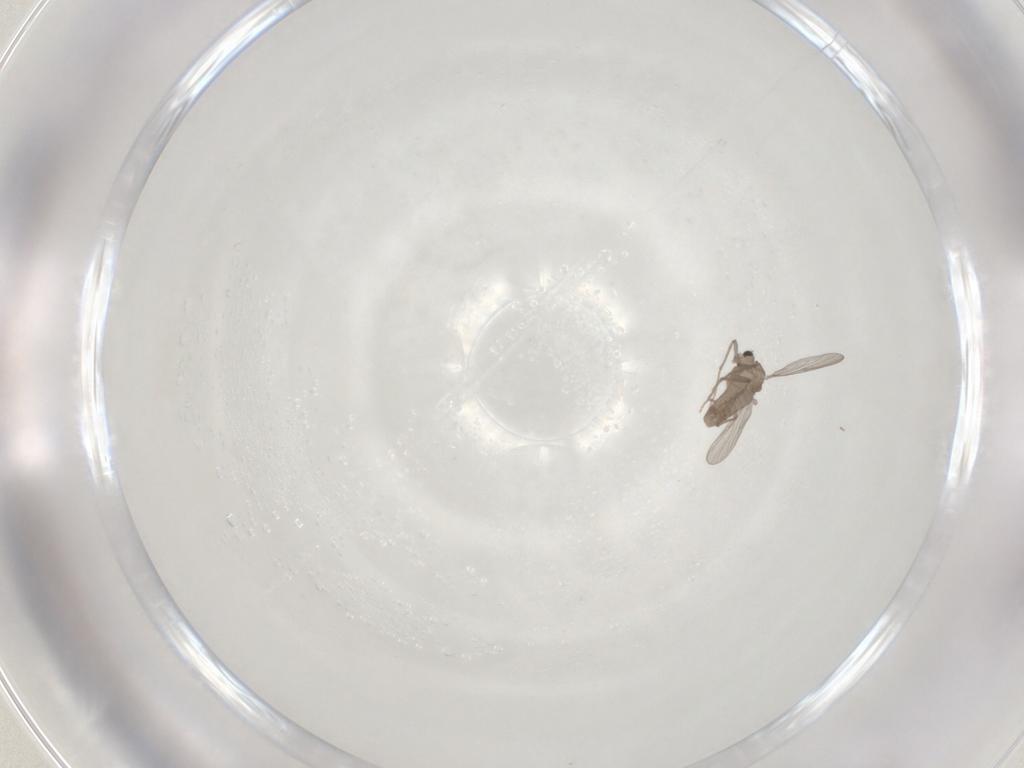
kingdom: Animalia
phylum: Arthropoda
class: Insecta
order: Diptera
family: Chironomidae
